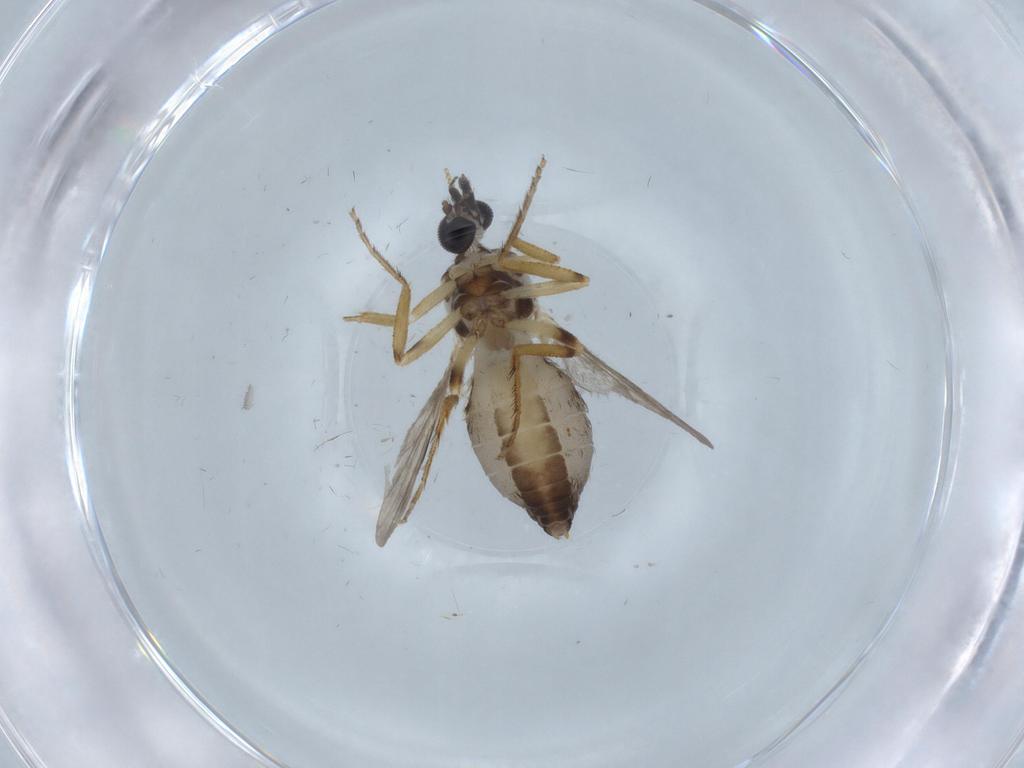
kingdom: Animalia
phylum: Arthropoda
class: Insecta
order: Diptera
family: Ceratopogonidae
